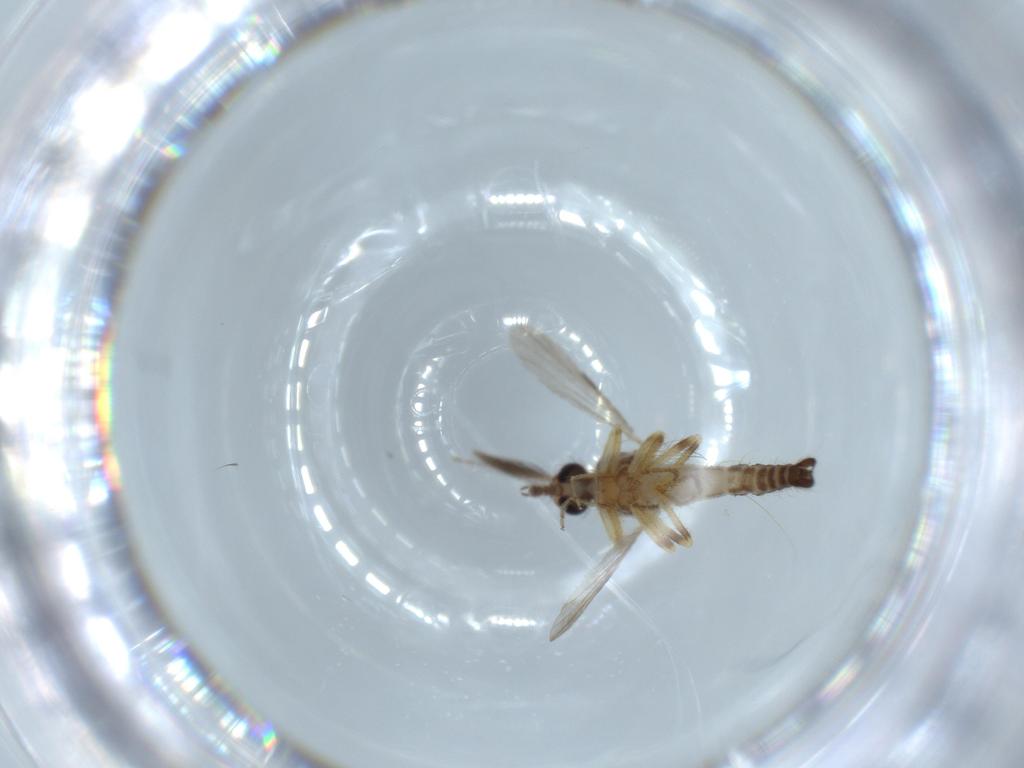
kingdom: Animalia
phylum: Arthropoda
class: Insecta
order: Diptera
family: Ceratopogonidae
